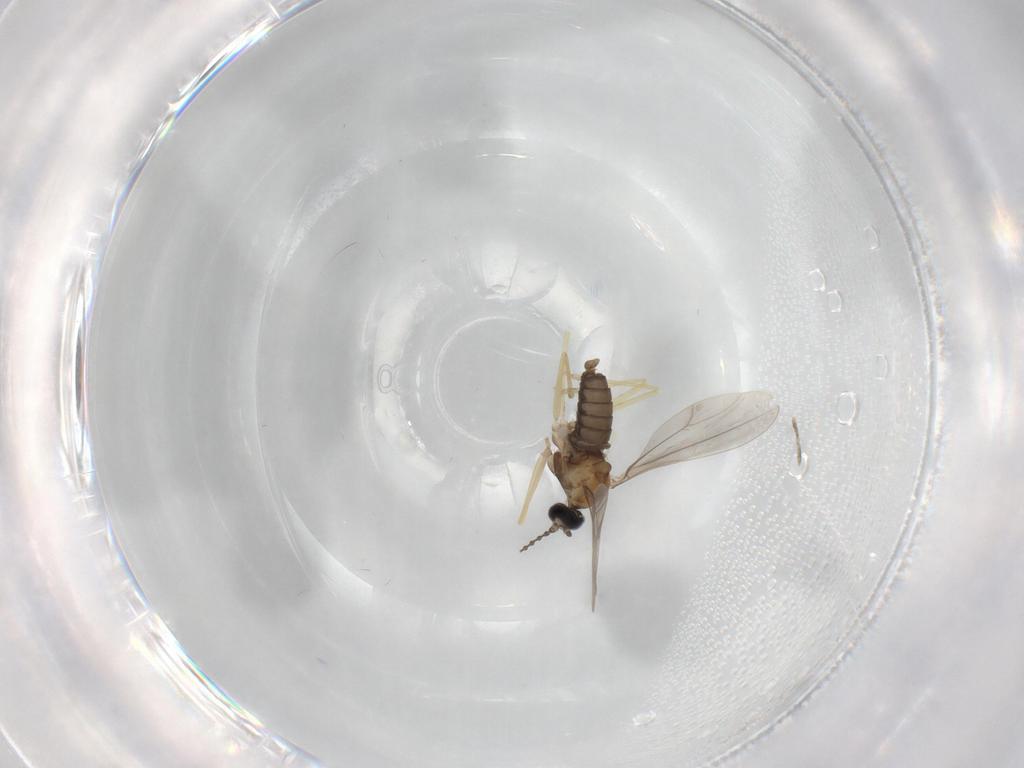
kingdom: Animalia
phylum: Arthropoda
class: Insecta
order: Diptera
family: Cecidomyiidae
